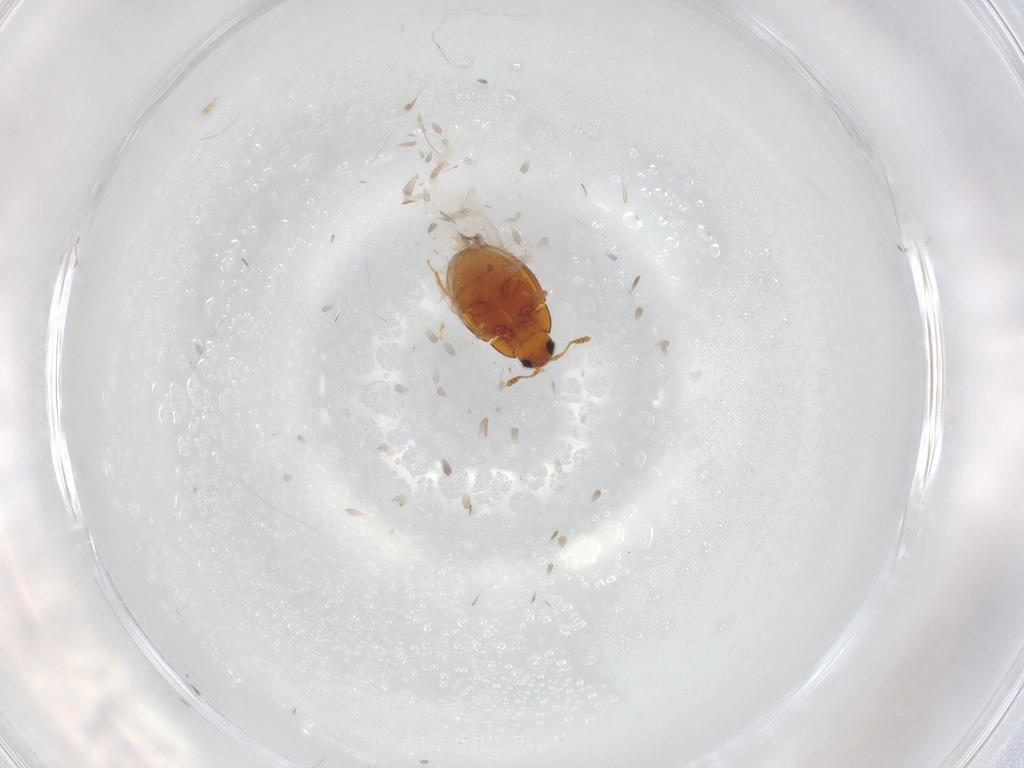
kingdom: Animalia
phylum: Arthropoda
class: Insecta
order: Coleoptera
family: Cryptophagidae
